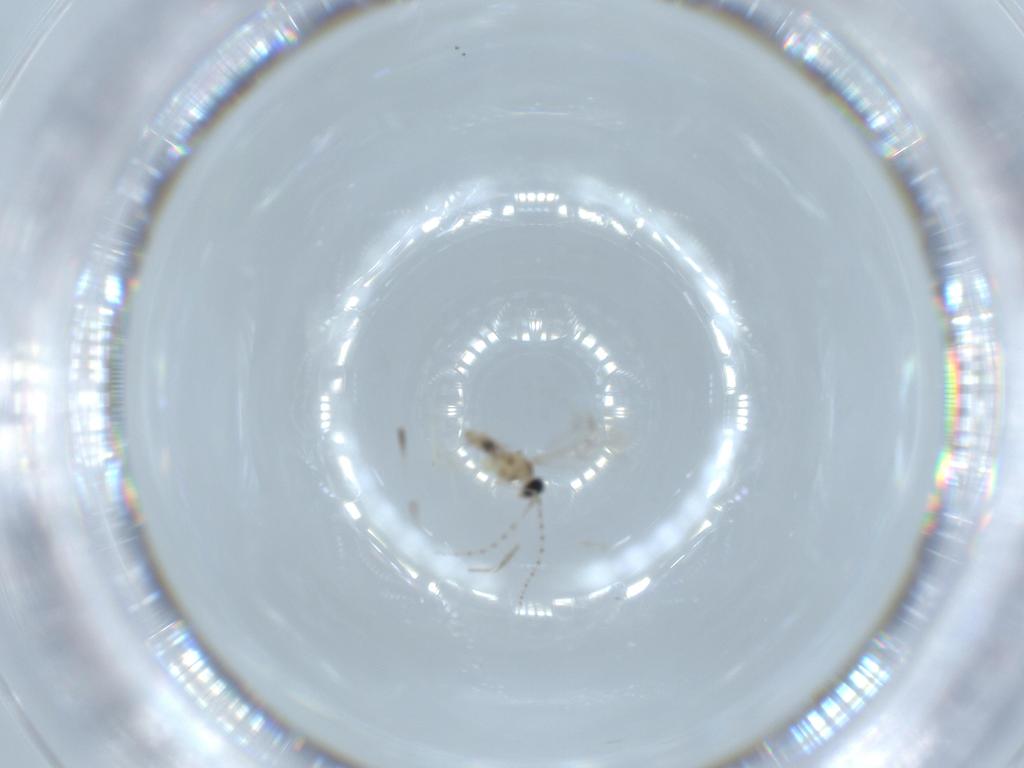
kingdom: Animalia
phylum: Arthropoda
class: Insecta
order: Diptera
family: Cecidomyiidae
